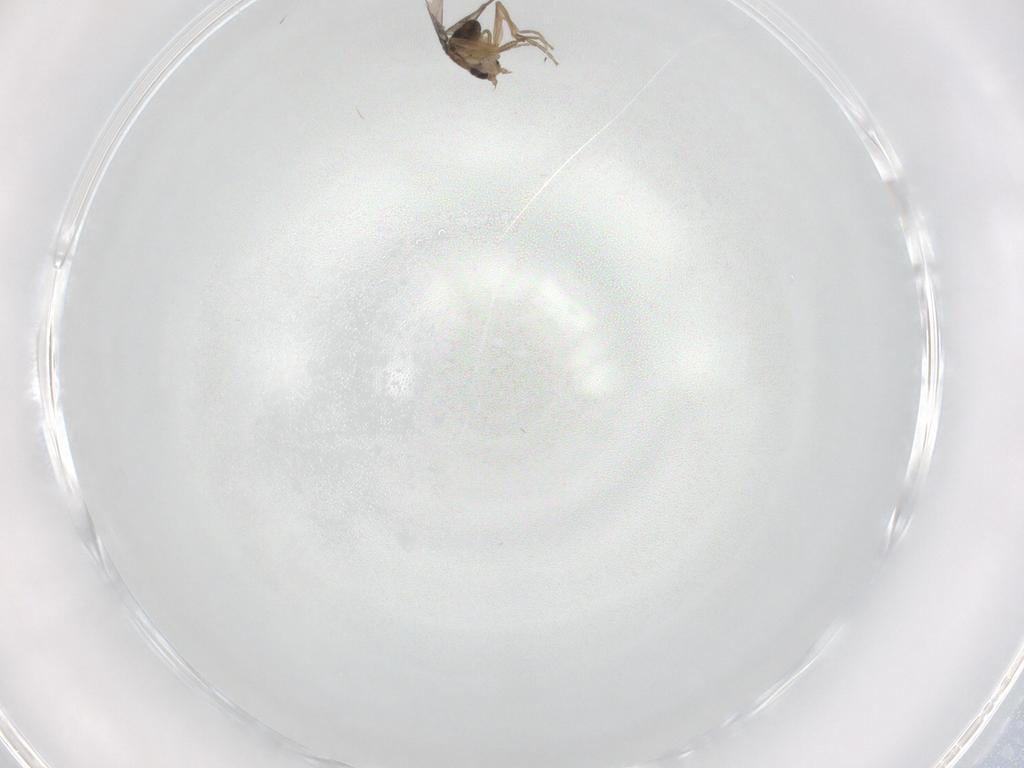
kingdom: Animalia
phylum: Arthropoda
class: Insecta
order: Diptera
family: Phoridae
